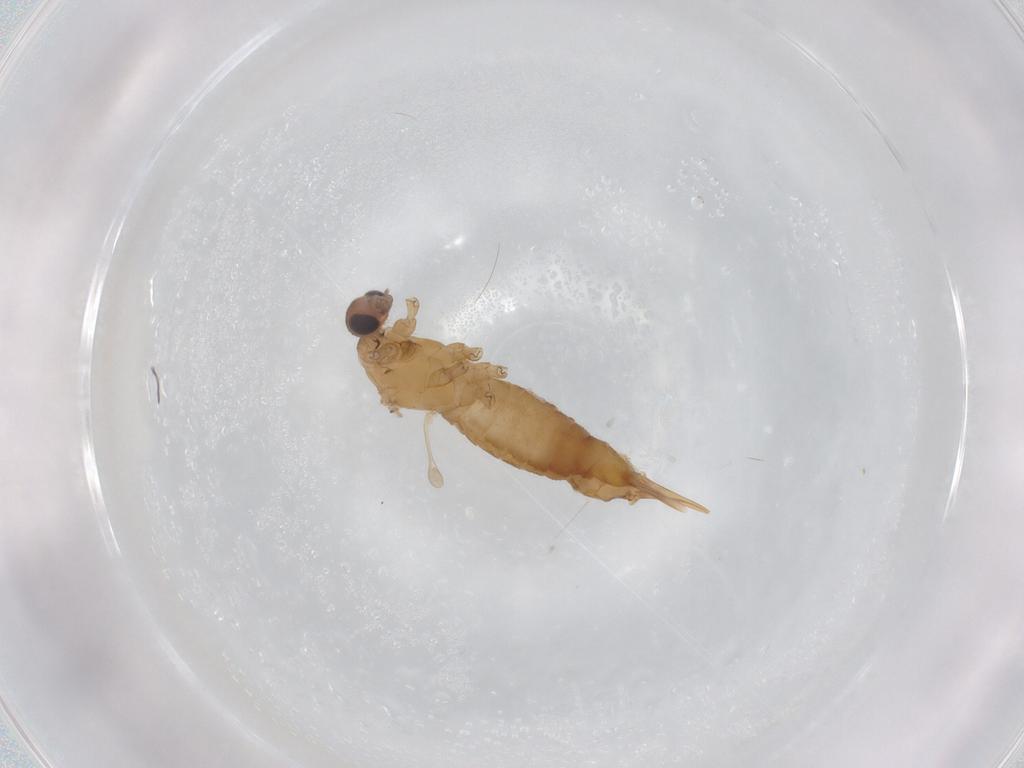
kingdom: Animalia
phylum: Arthropoda
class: Insecta
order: Diptera
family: Limoniidae
